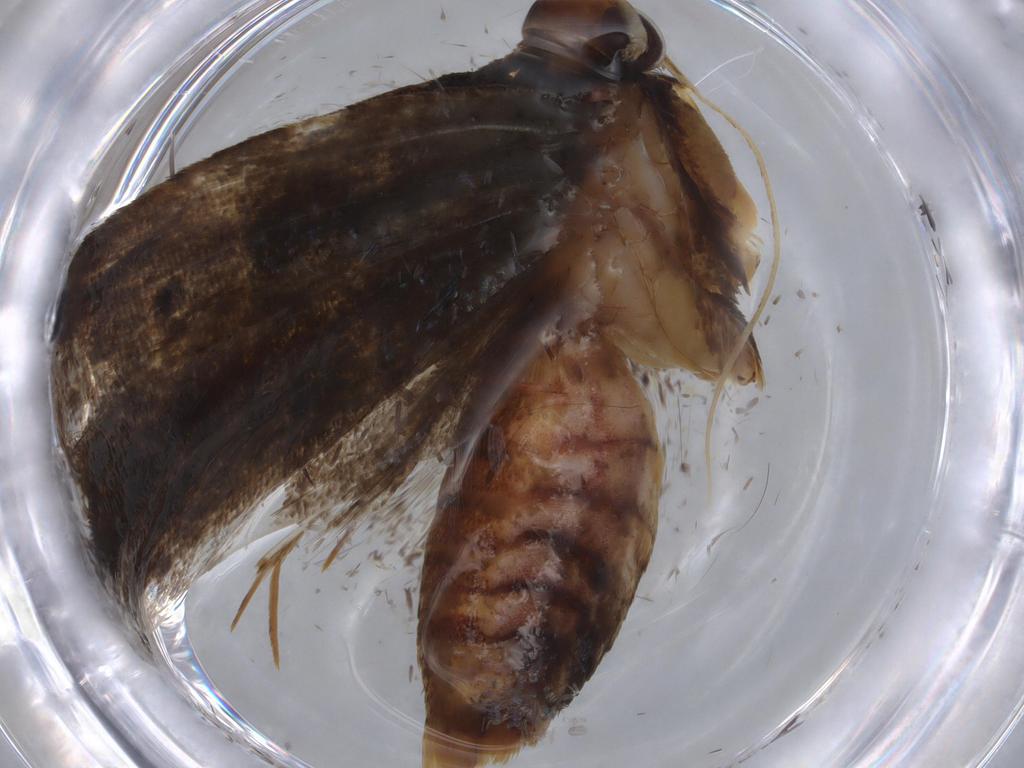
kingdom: Animalia
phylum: Arthropoda
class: Insecta
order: Lepidoptera
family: Lecithoceridae
